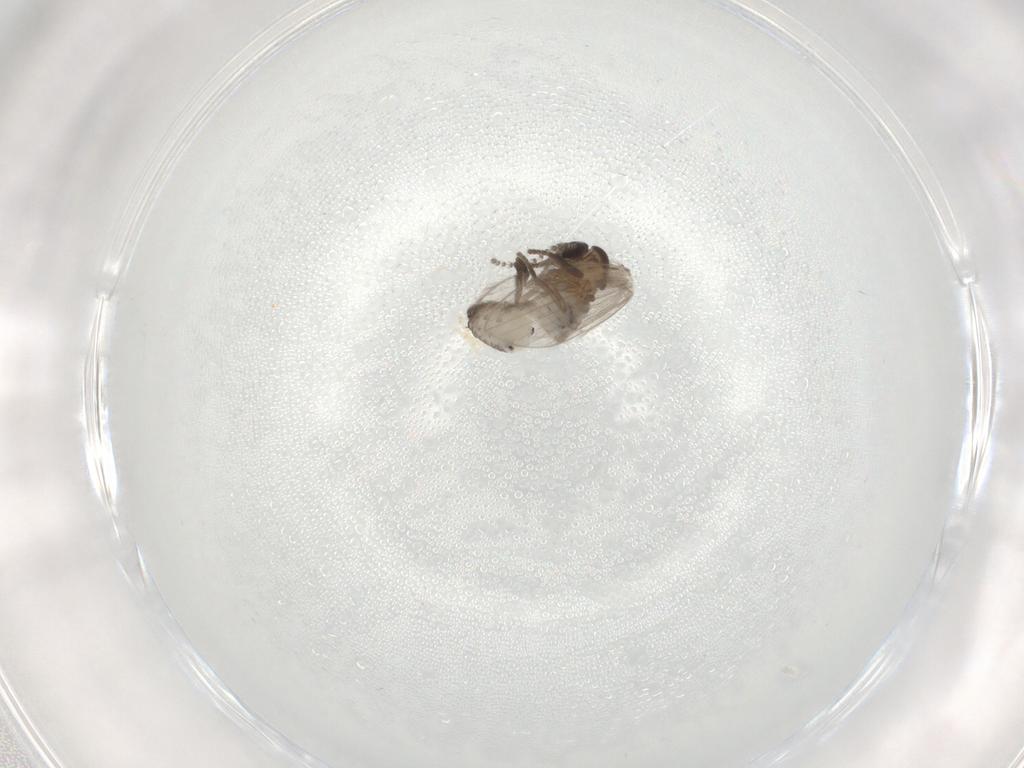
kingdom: Animalia
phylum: Arthropoda
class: Insecta
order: Diptera
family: Psychodidae
